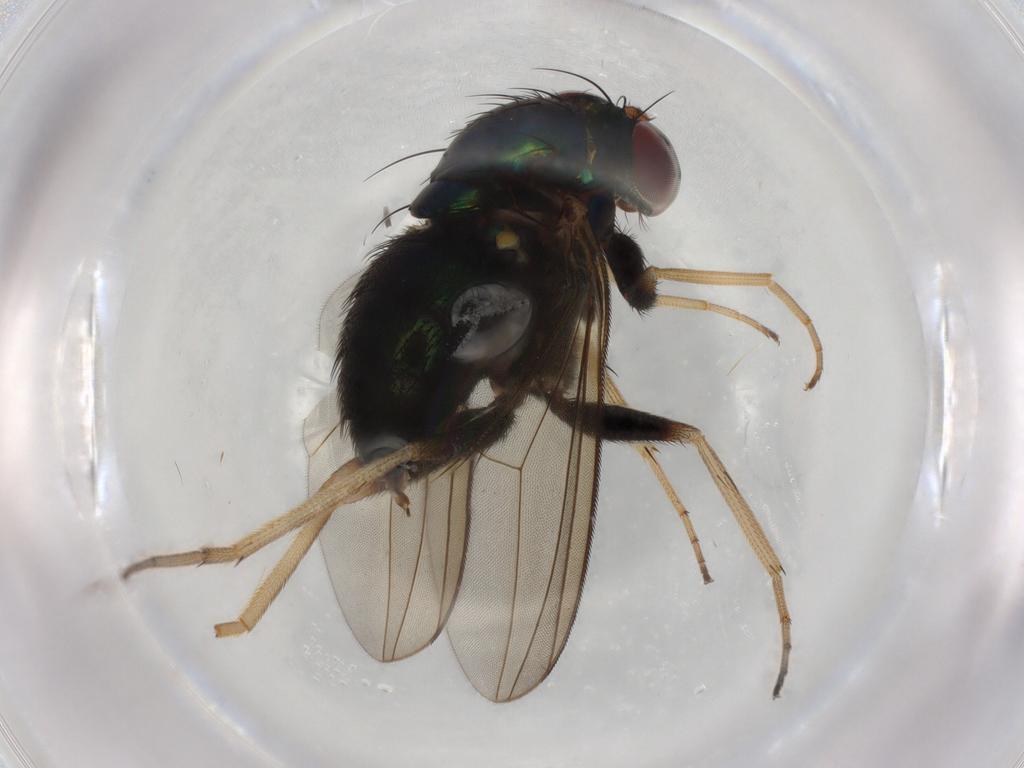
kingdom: Animalia
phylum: Arthropoda
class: Insecta
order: Diptera
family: Dolichopodidae
